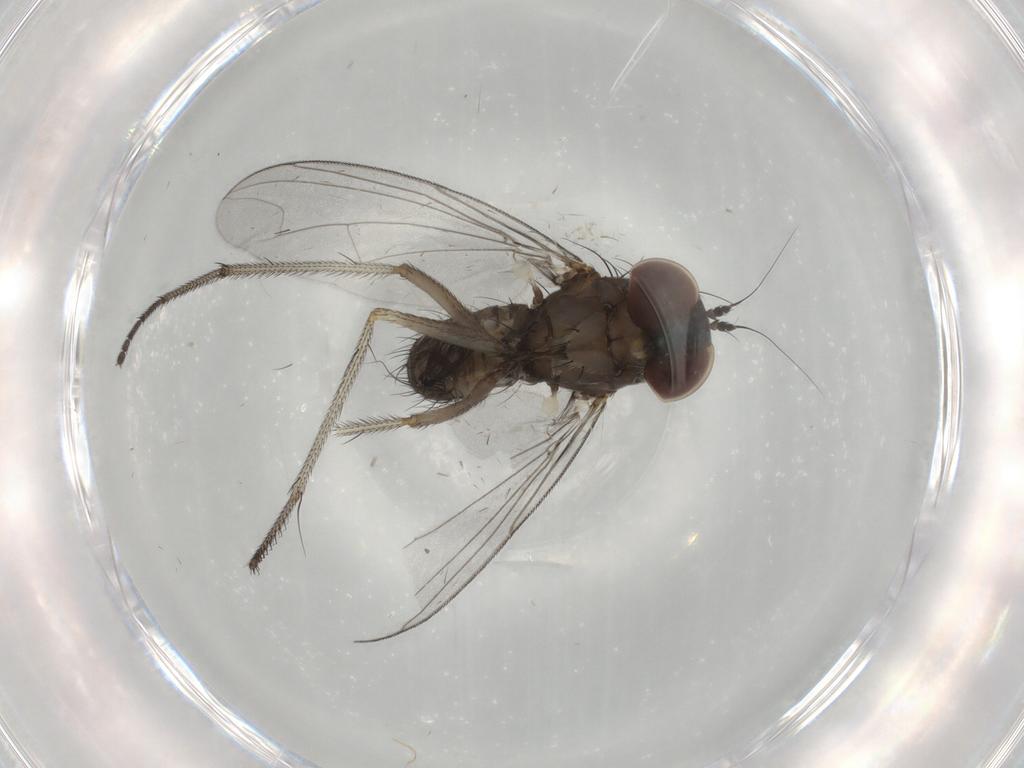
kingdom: Animalia
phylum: Arthropoda
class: Insecta
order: Diptera
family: Dolichopodidae
